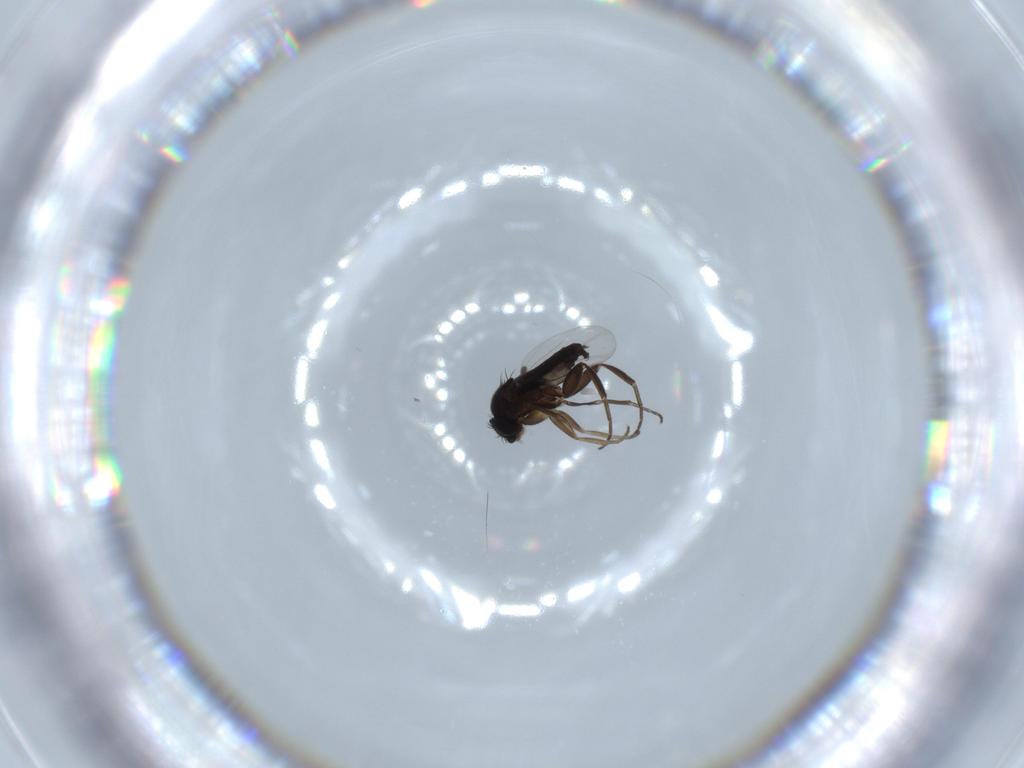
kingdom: Animalia
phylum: Arthropoda
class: Insecta
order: Diptera
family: Phoridae
